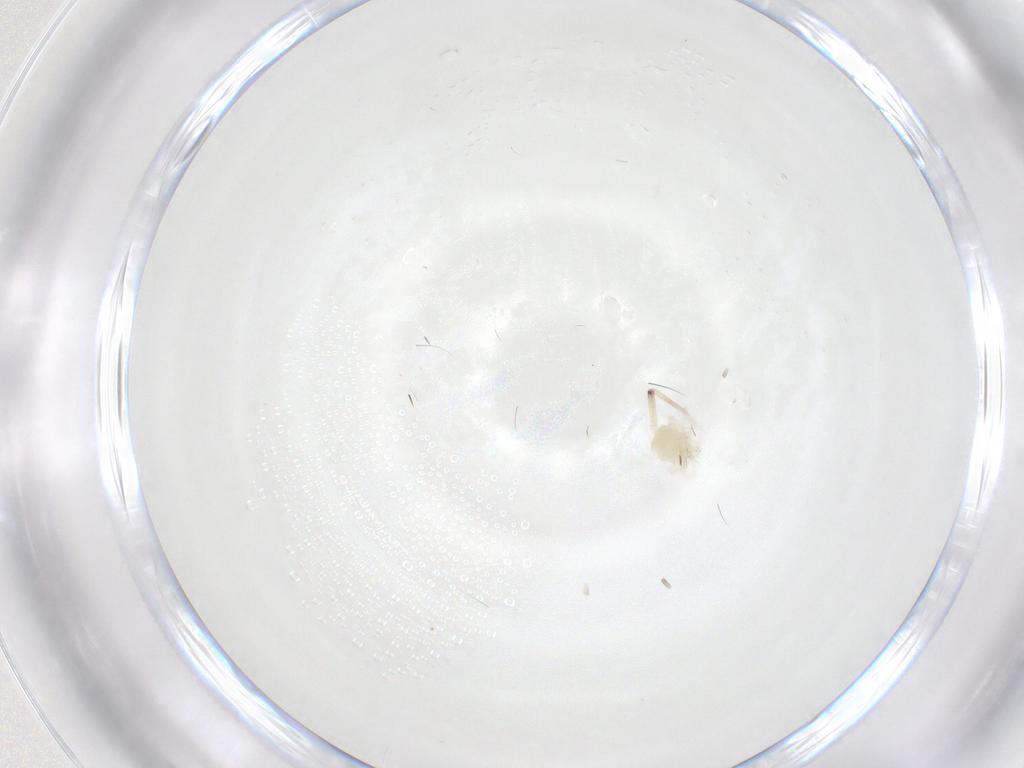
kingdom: Animalia
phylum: Arthropoda
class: Arachnida
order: Trombidiformes
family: Anystidae
